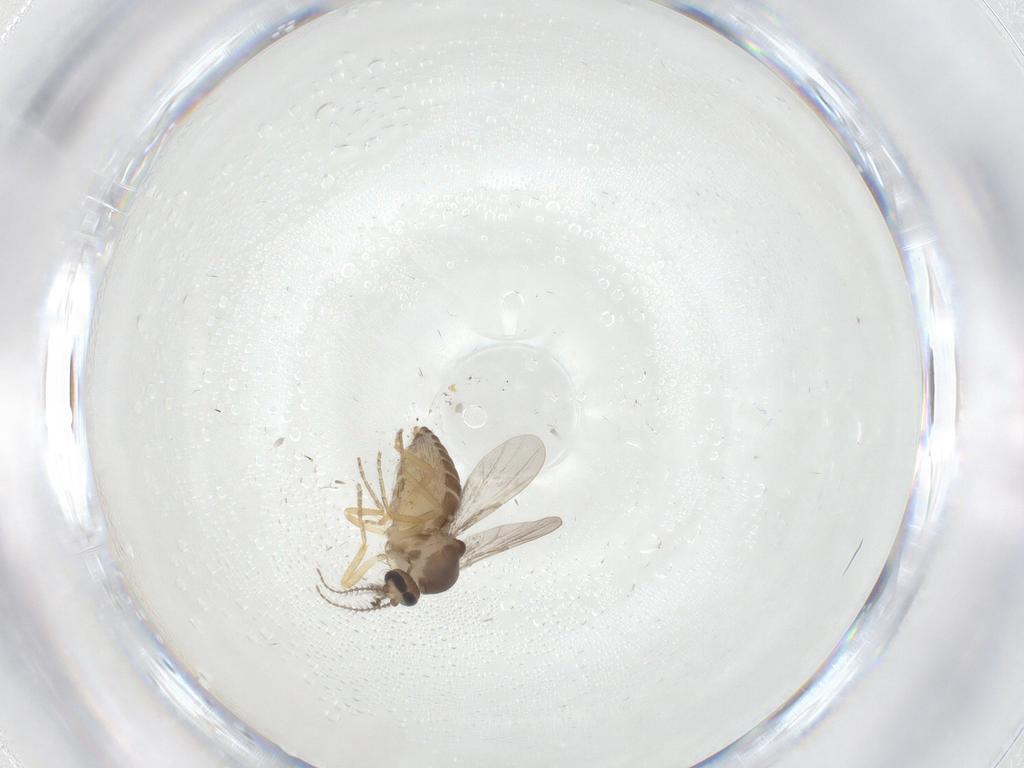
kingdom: Animalia
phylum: Arthropoda
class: Insecta
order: Diptera
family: Ceratopogonidae
